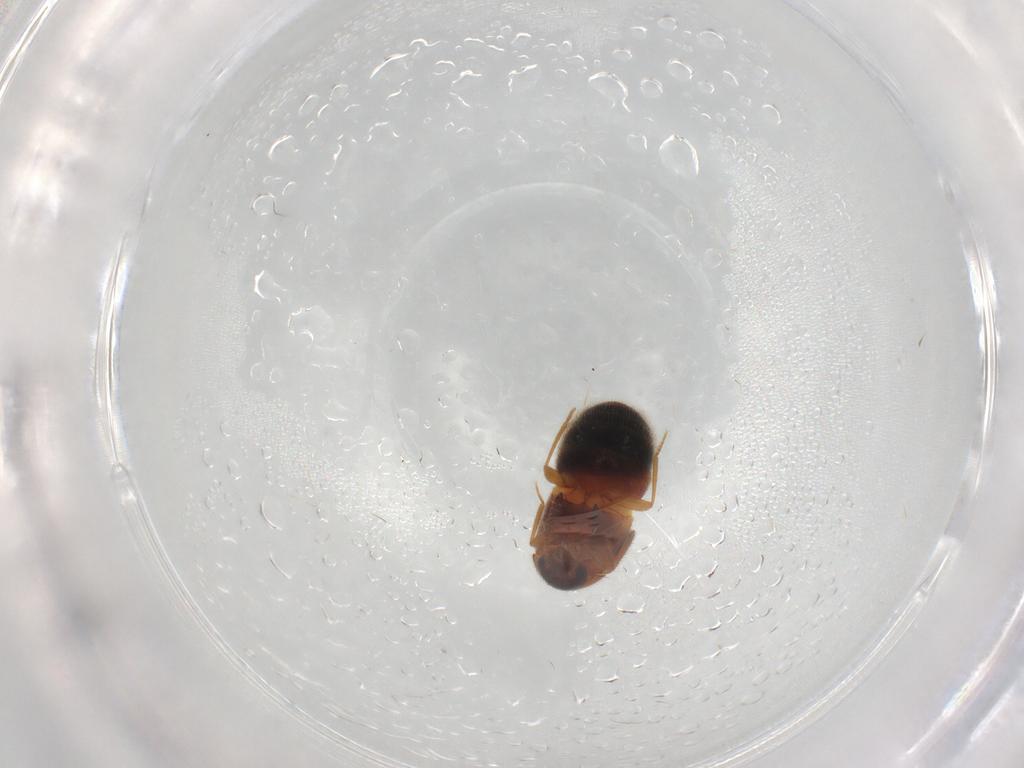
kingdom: Animalia
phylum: Arthropoda
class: Insecta
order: Coleoptera
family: Staphylinidae
